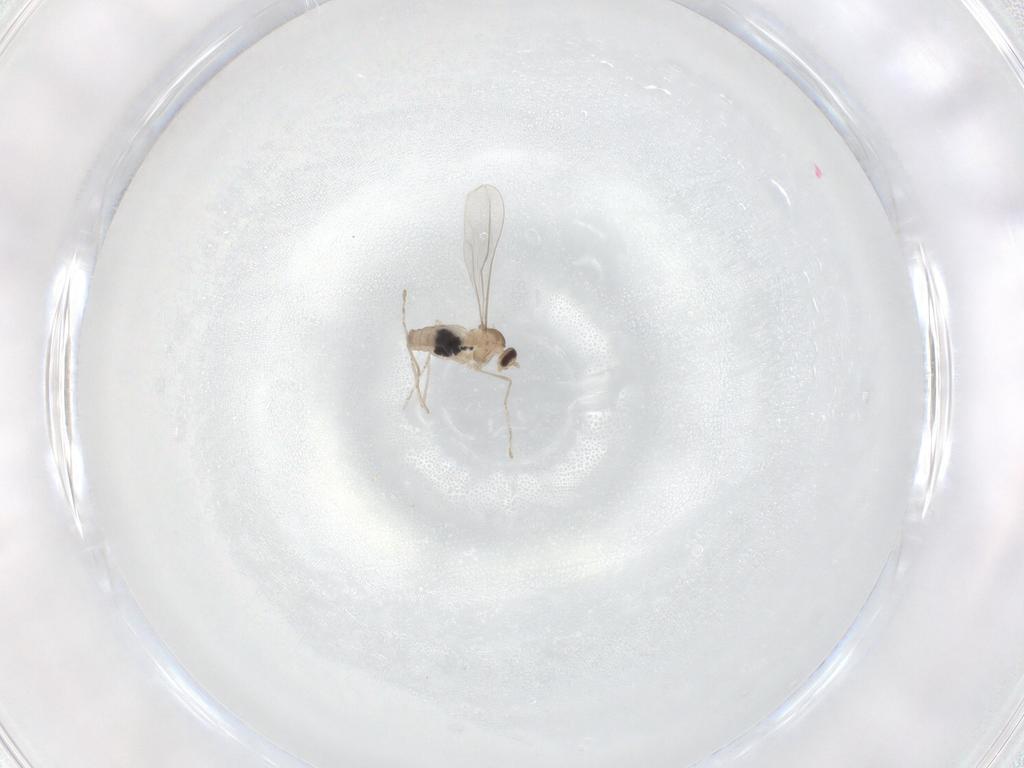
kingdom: Animalia
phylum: Arthropoda
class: Insecta
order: Diptera
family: Cecidomyiidae
